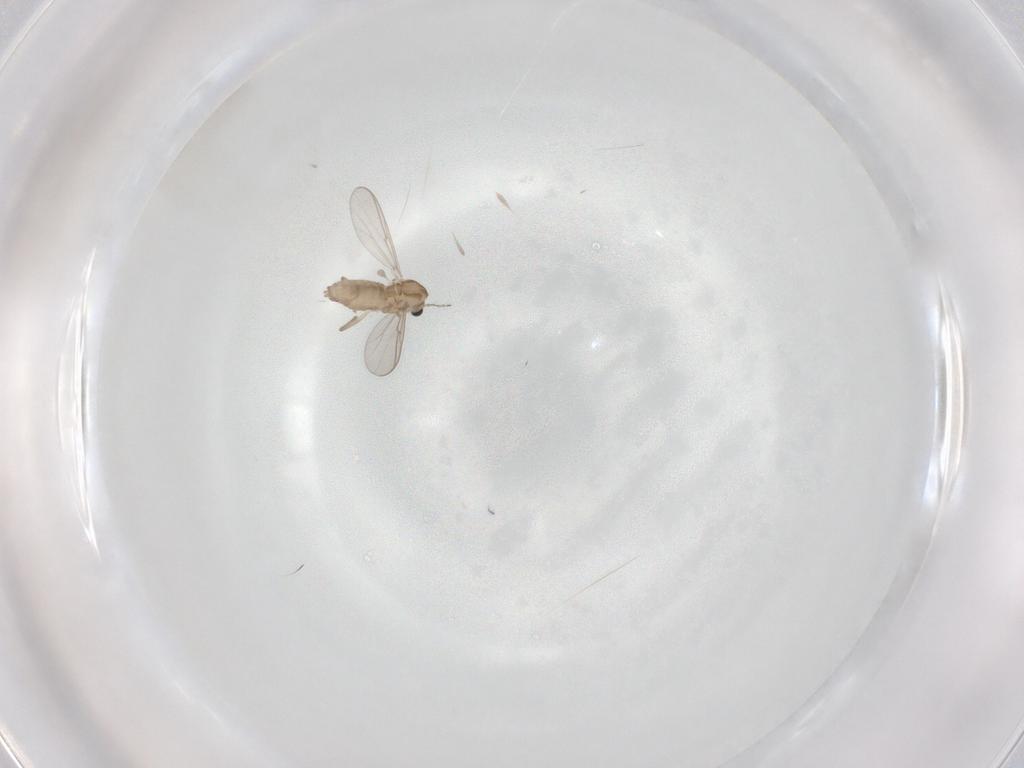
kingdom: Animalia
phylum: Arthropoda
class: Insecta
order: Diptera
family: Chironomidae
